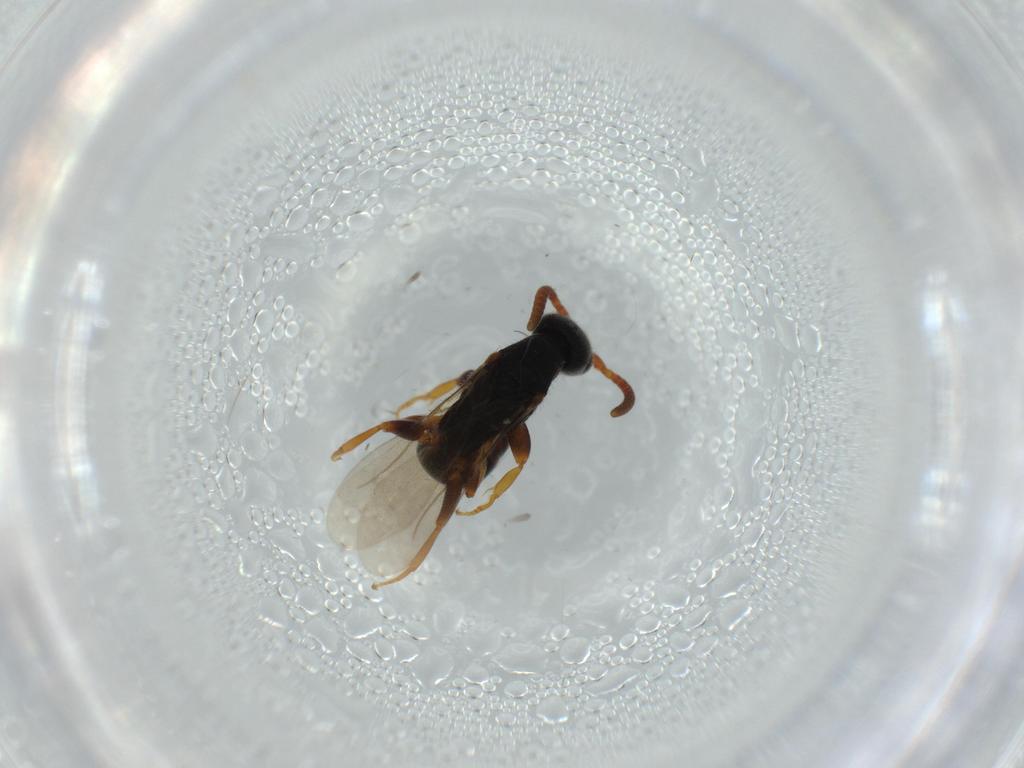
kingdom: Animalia
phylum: Arthropoda
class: Insecta
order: Hymenoptera
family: Bethylidae
